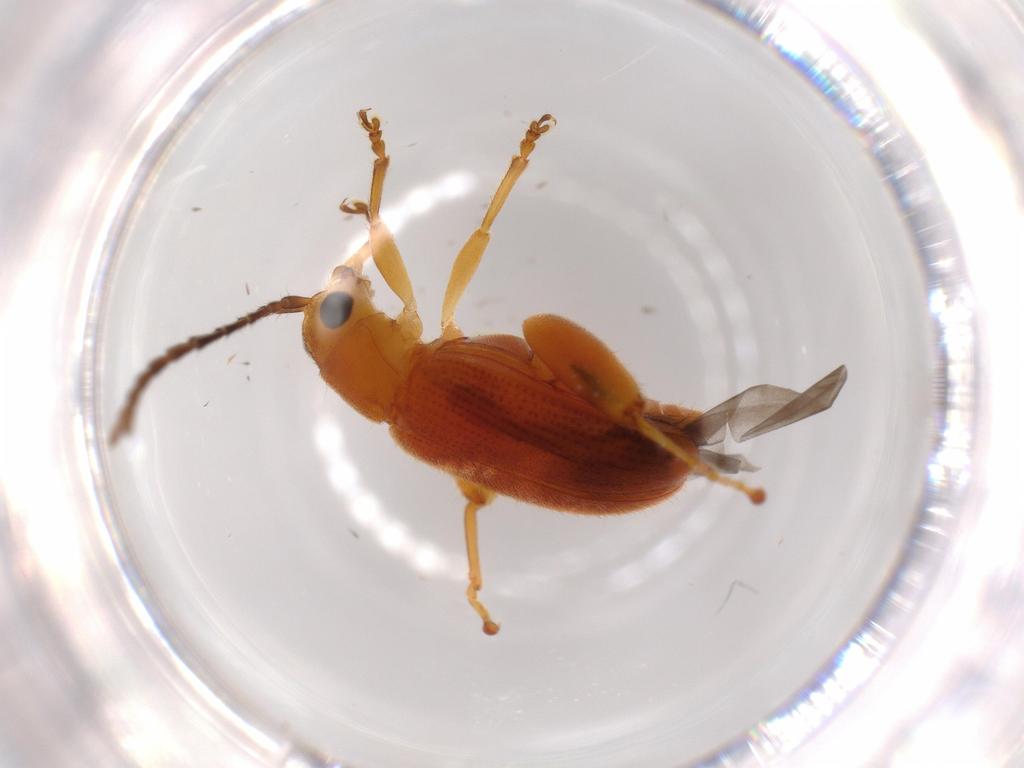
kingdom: Animalia
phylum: Arthropoda
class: Insecta
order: Coleoptera
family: Chrysomelidae
